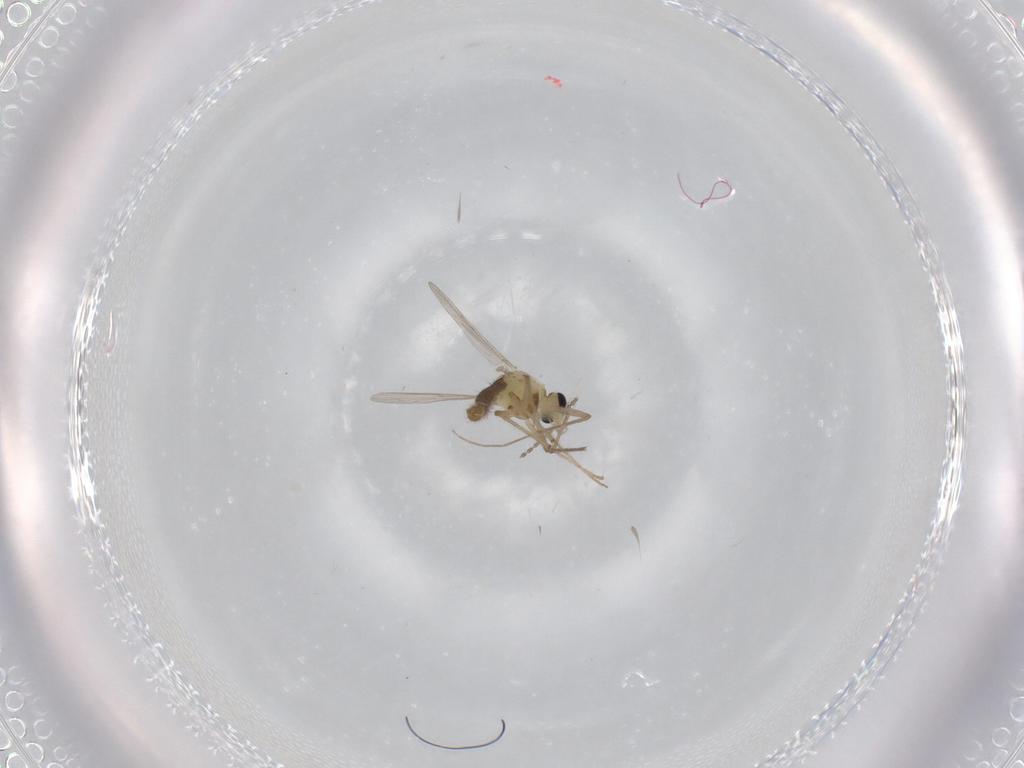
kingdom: Animalia
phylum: Arthropoda
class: Insecta
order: Diptera
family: Chironomidae
